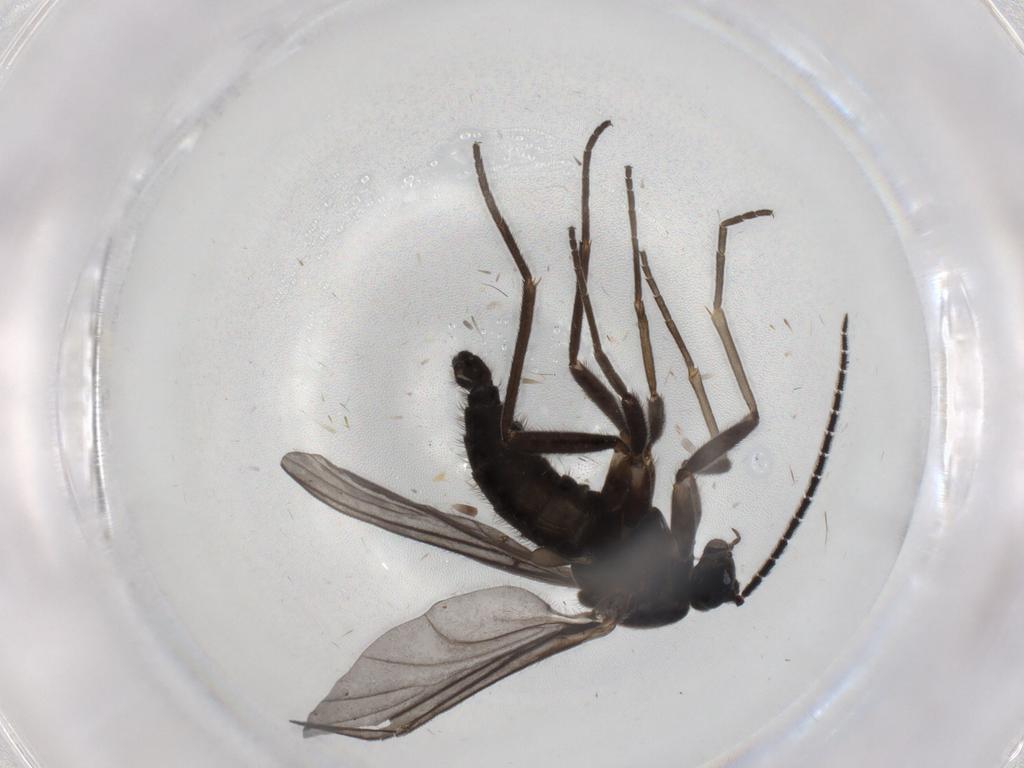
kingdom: Animalia
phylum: Arthropoda
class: Insecta
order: Diptera
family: Sciaridae
